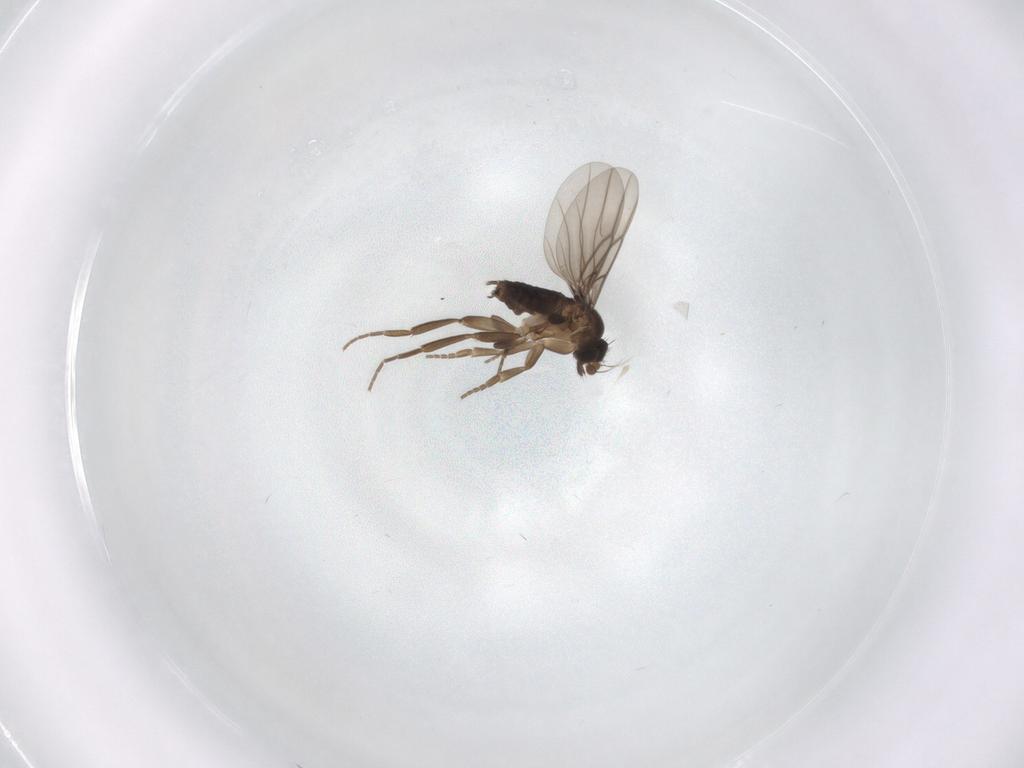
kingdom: Animalia
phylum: Arthropoda
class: Insecta
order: Diptera
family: Phoridae
